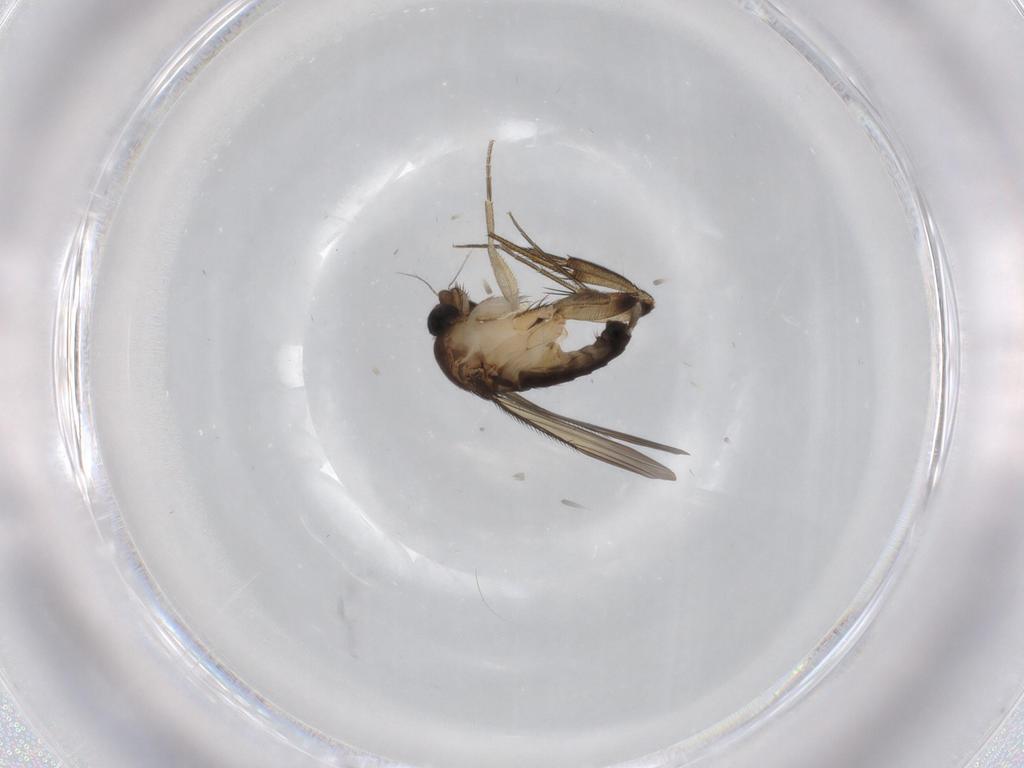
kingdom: Animalia
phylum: Arthropoda
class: Insecta
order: Diptera
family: Phoridae
